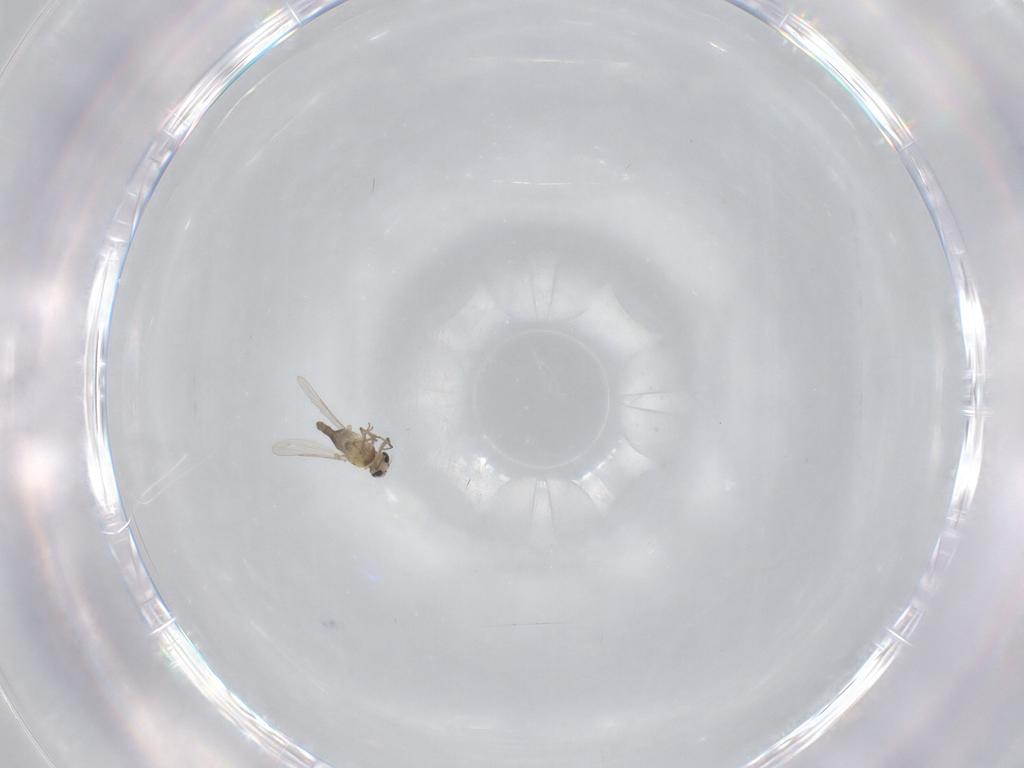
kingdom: Animalia
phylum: Arthropoda
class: Insecta
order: Diptera
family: Chironomidae
